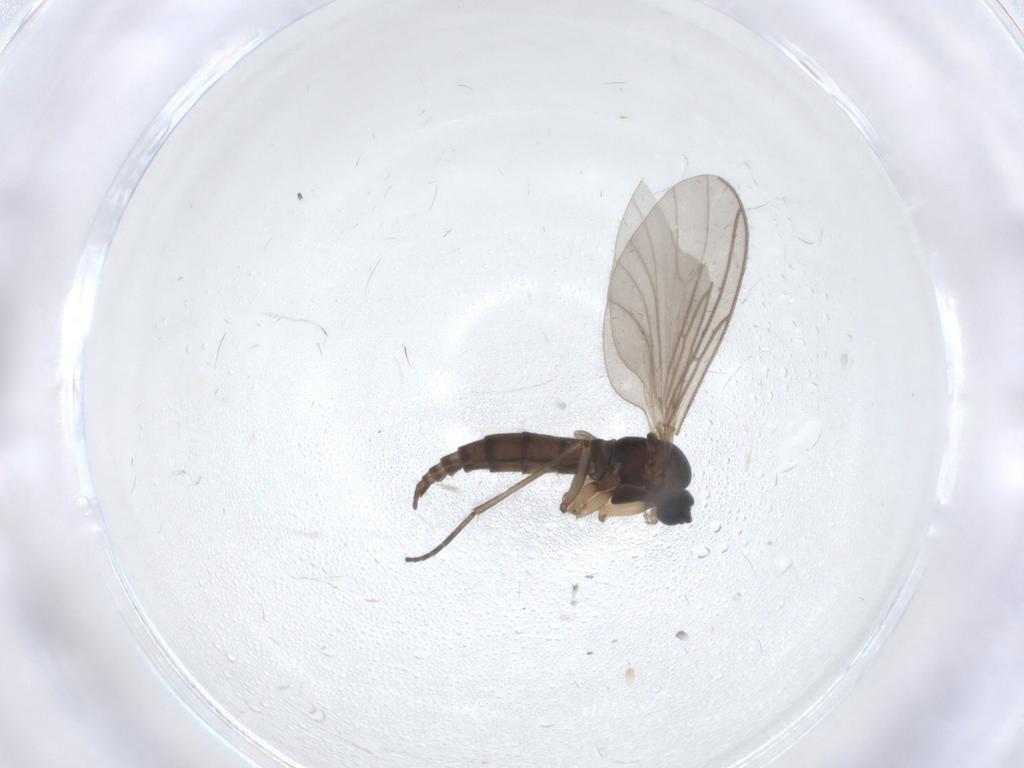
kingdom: Animalia
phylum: Arthropoda
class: Insecta
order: Diptera
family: Sciaridae
